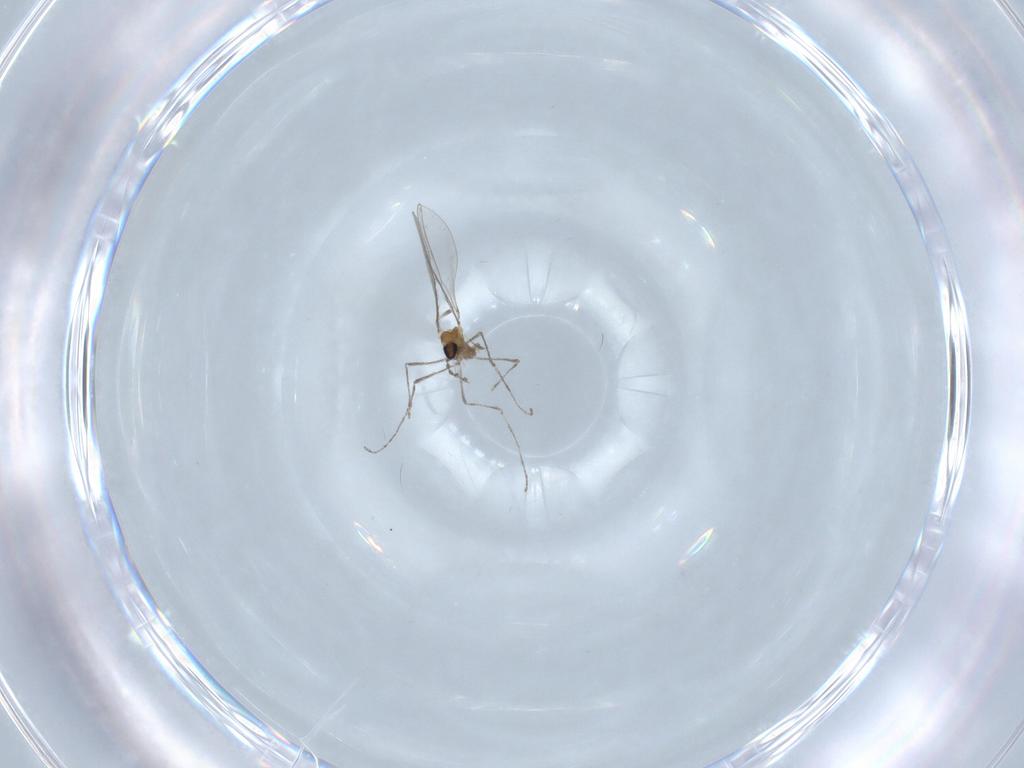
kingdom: Animalia
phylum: Arthropoda
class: Insecta
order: Diptera
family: Cecidomyiidae
